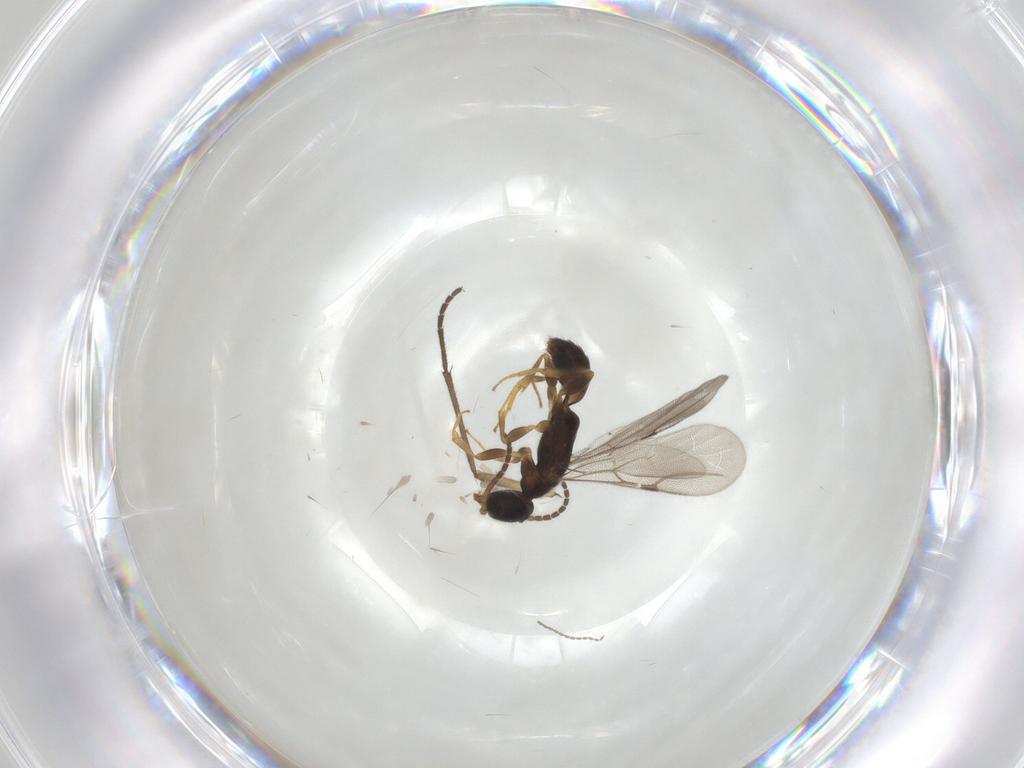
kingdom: Animalia
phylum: Arthropoda
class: Insecta
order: Hymenoptera
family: Bethylidae
